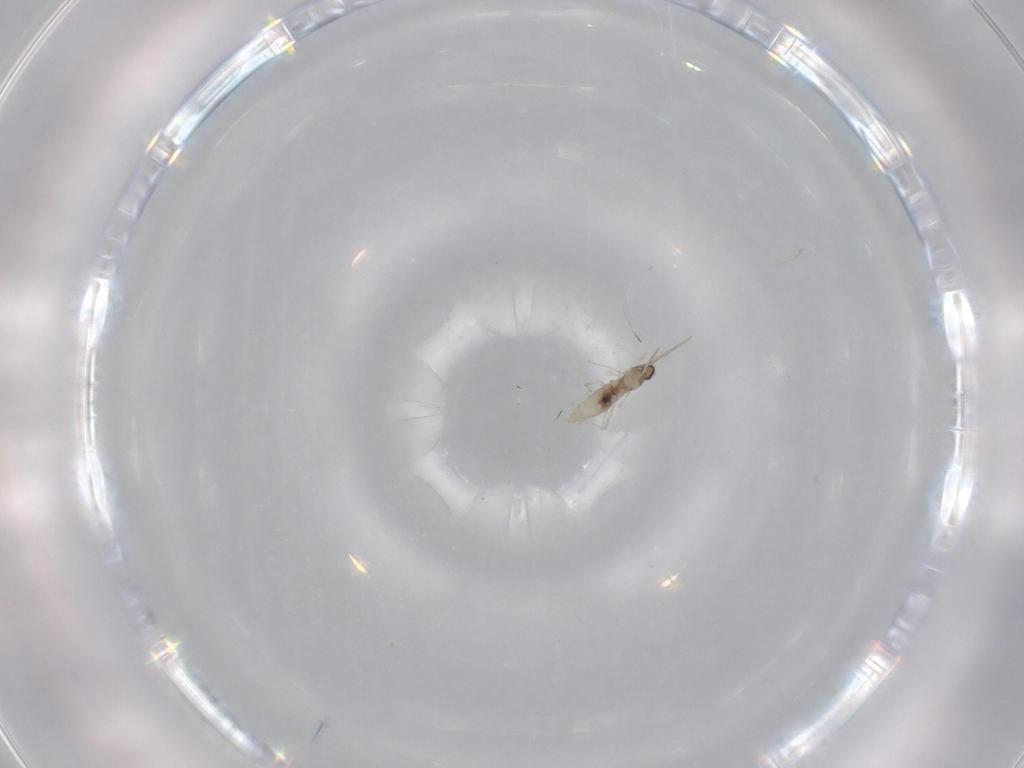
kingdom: Animalia
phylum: Arthropoda
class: Insecta
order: Diptera
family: Cecidomyiidae
